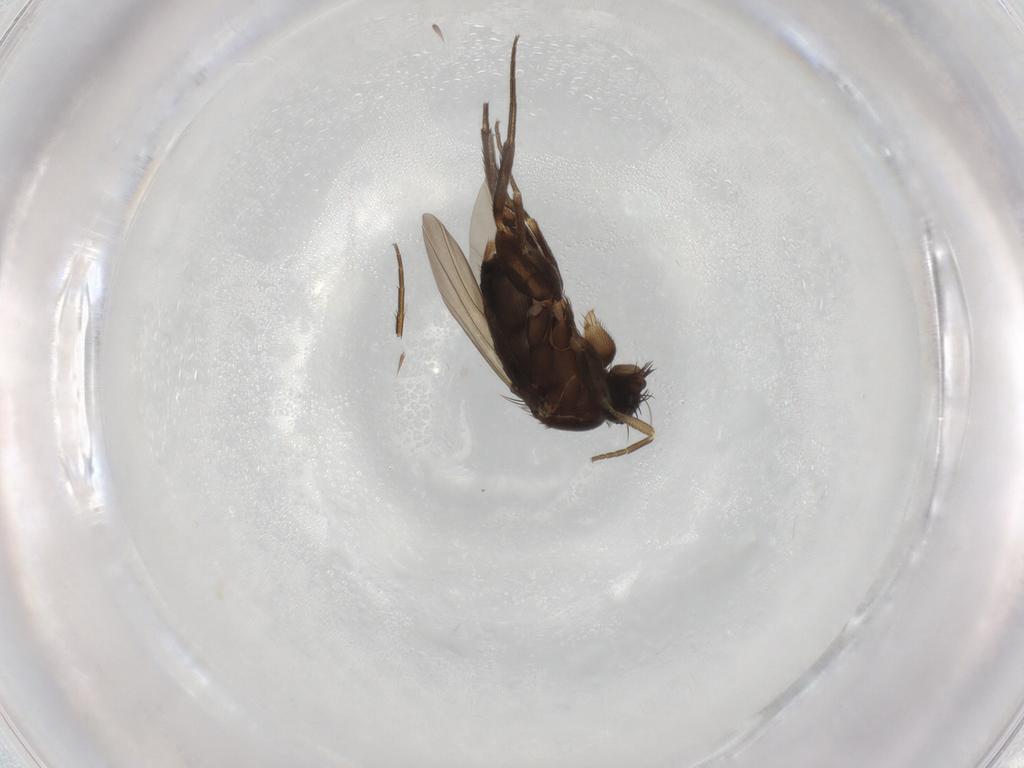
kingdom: Animalia
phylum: Arthropoda
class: Insecta
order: Diptera
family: Phoridae
